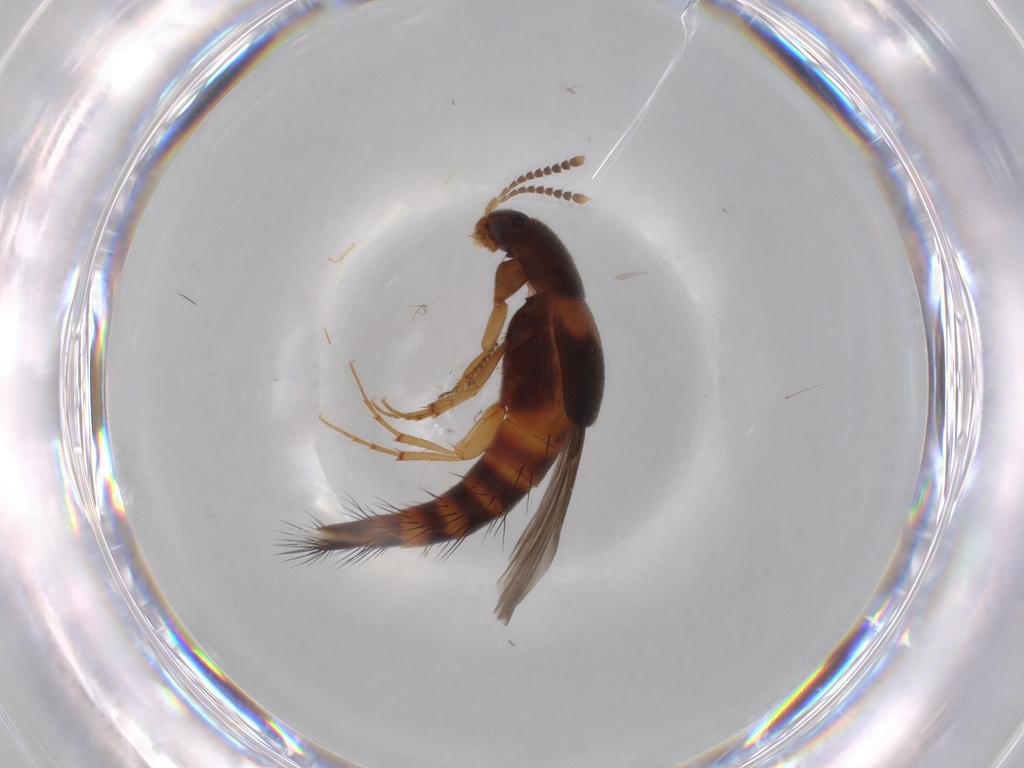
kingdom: Animalia
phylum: Arthropoda
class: Insecta
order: Coleoptera
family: Staphylinidae
